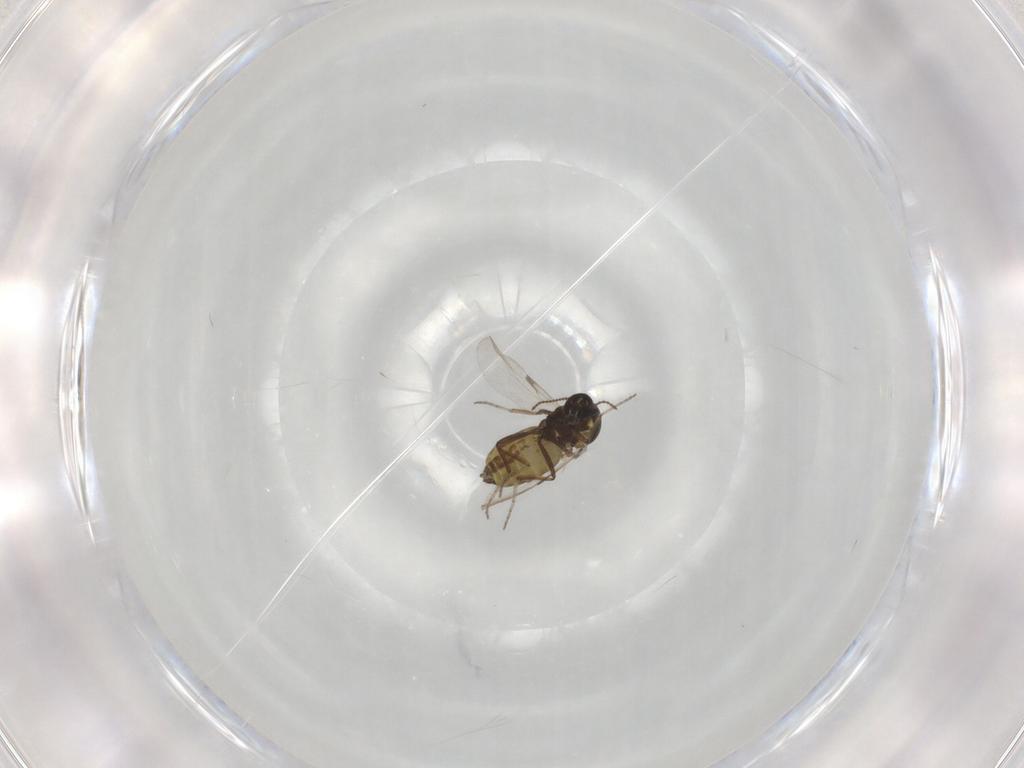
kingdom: Animalia
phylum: Arthropoda
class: Insecta
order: Diptera
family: Ceratopogonidae
